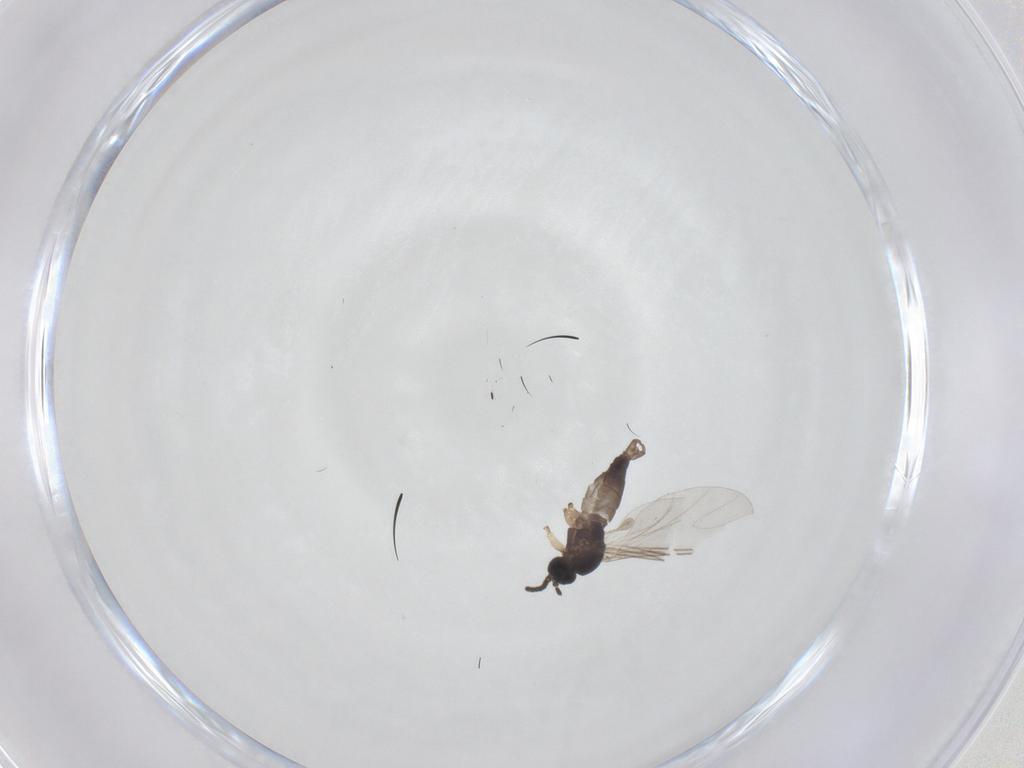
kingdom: Animalia
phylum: Arthropoda
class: Insecta
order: Diptera
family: Sciaridae
